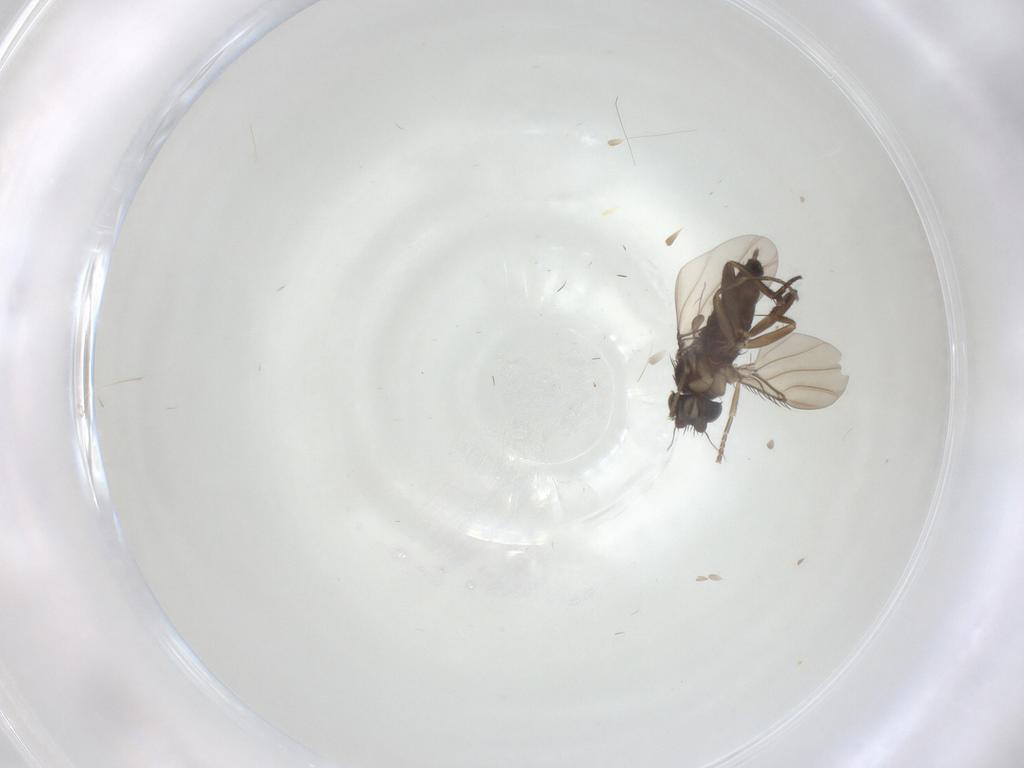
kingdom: Animalia
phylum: Arthropoda
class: Insecta
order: Diptera
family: Phoridae
